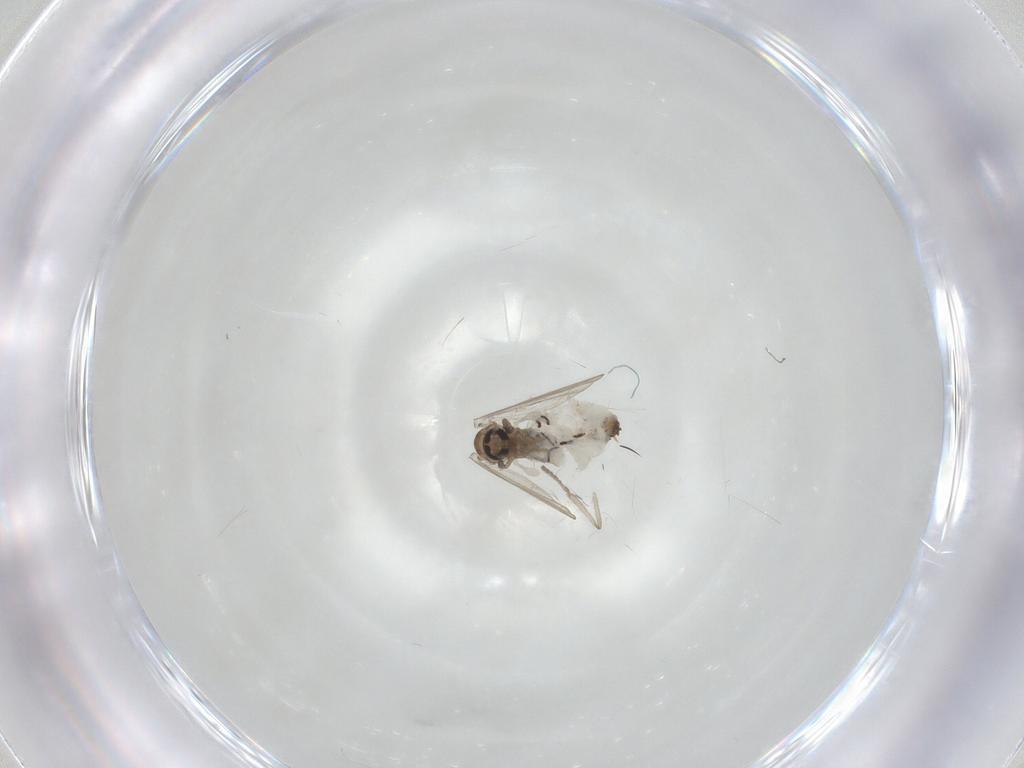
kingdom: Animalia
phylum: Arthropoda
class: Insecta
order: Diptera
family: Psychodidae
